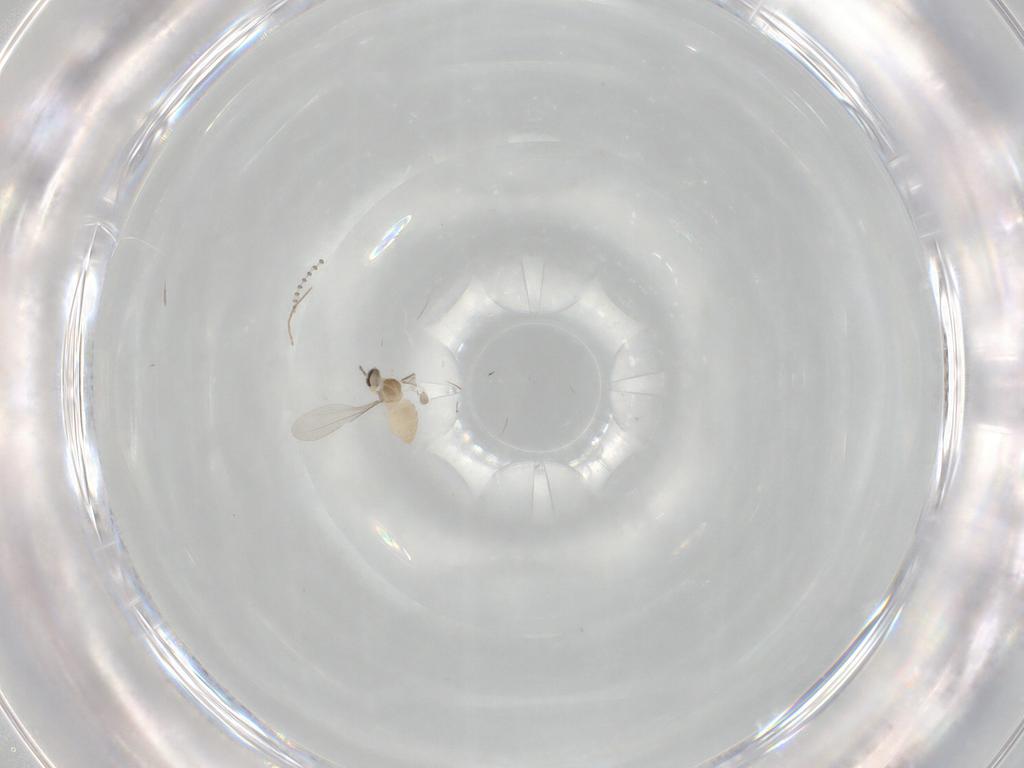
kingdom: Animalia
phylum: Arthropoda
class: Insecta
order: Diptera
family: Cecidomyiidae
